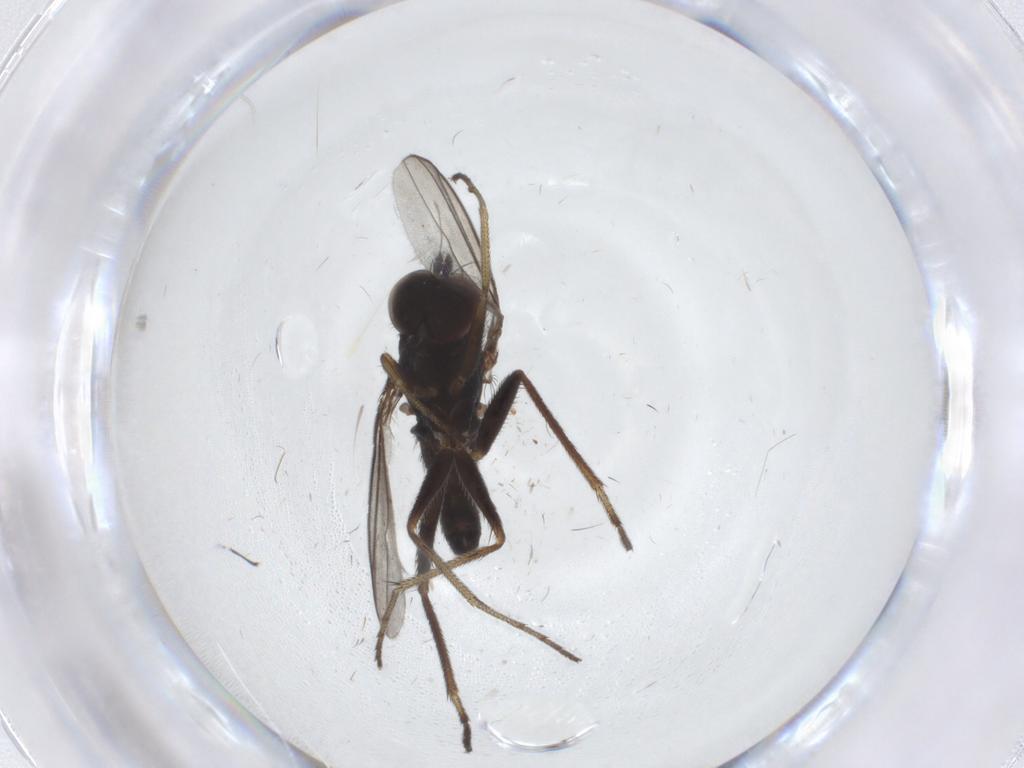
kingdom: Animalia
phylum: Arthropoda
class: Insecta
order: Diptera
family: Dolichopodidae
